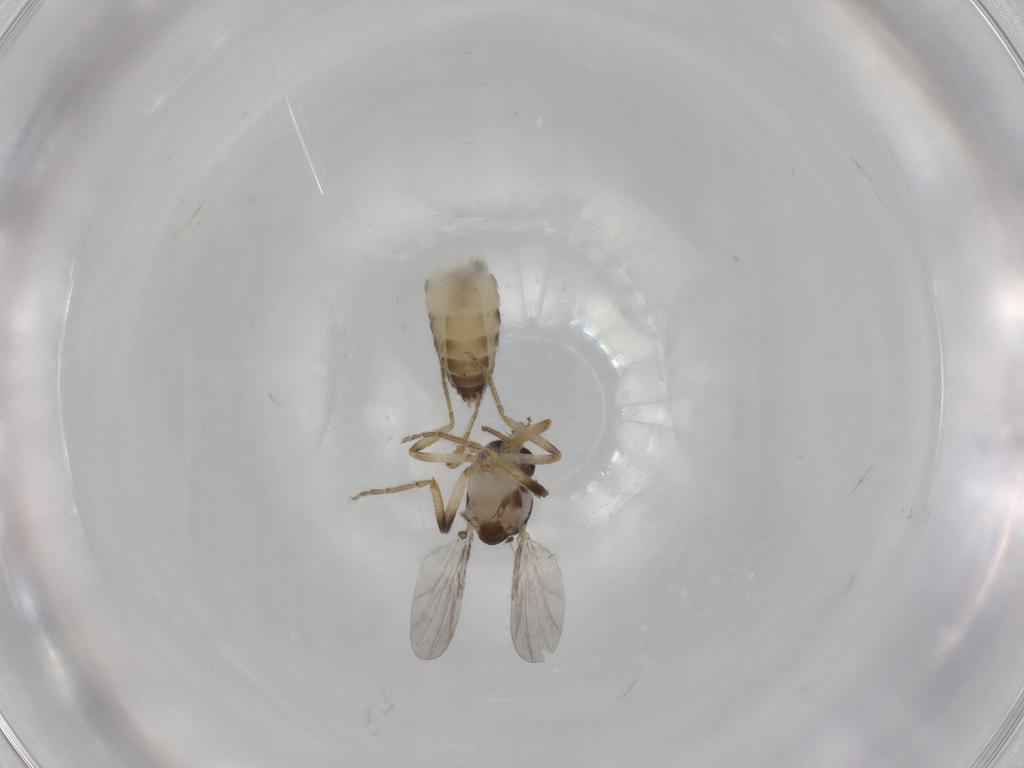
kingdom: Animalia
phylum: Arthropoda
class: Insecta
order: Diptera
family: Ceratopogonidae
